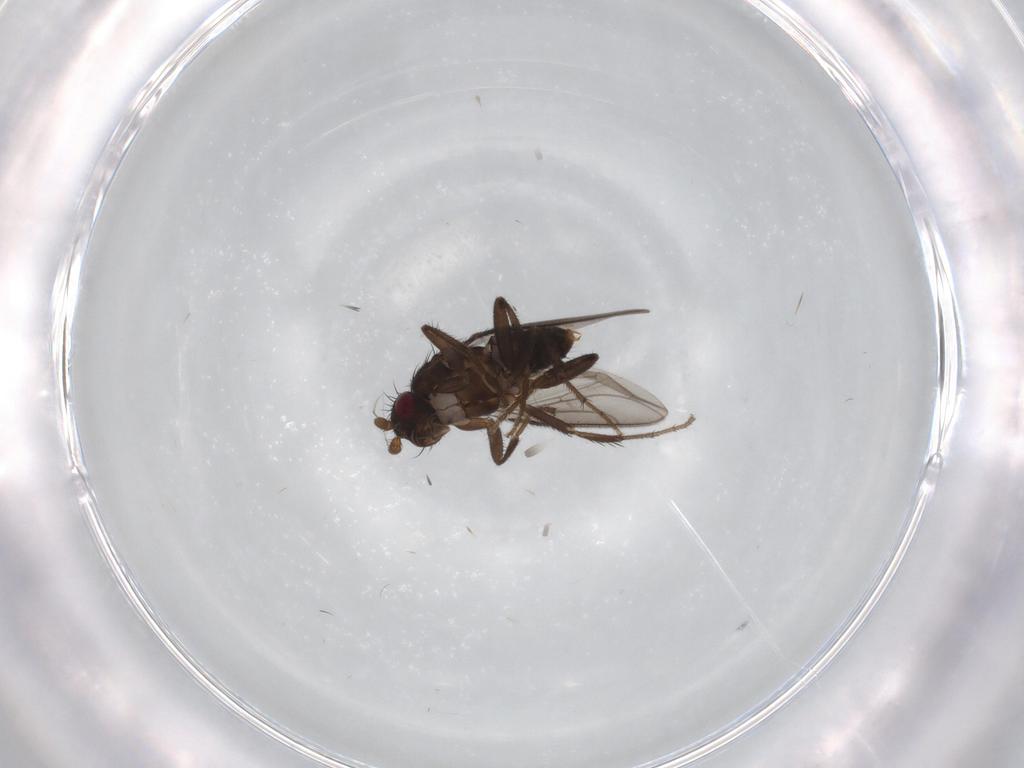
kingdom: Animalia
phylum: Arthropoda
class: Insecta
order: Diptera
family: Sphaeroceridae
